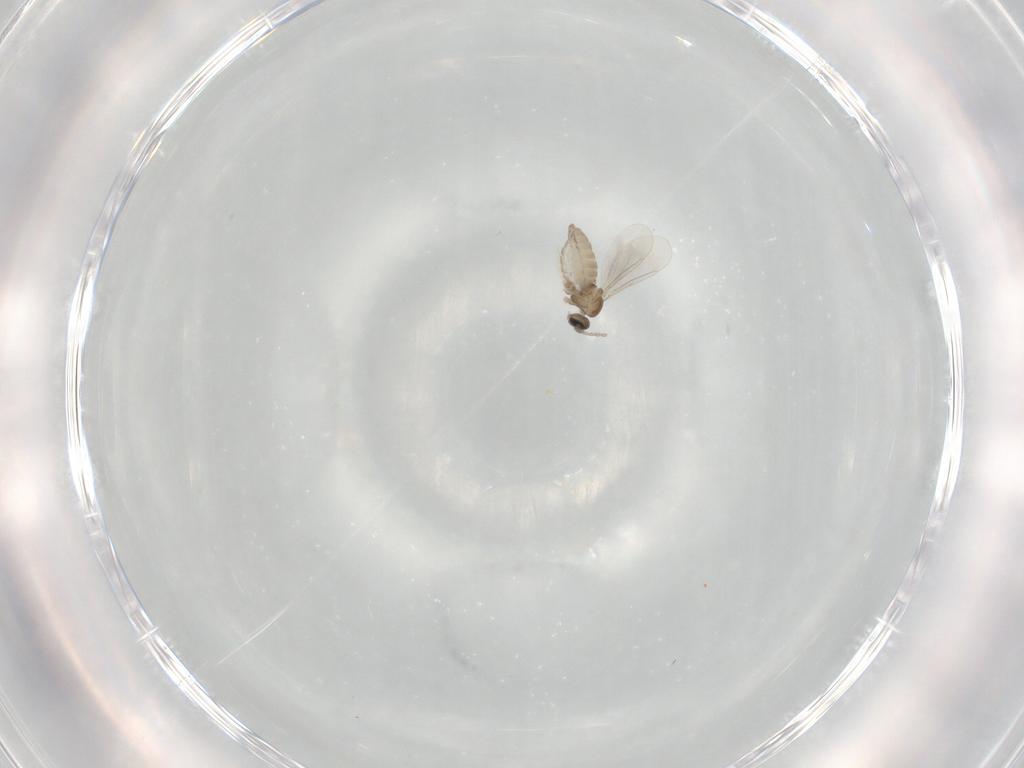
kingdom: Animalia
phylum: Arthropoda
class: Insecta
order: Diptera
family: Cecidomyiidae
